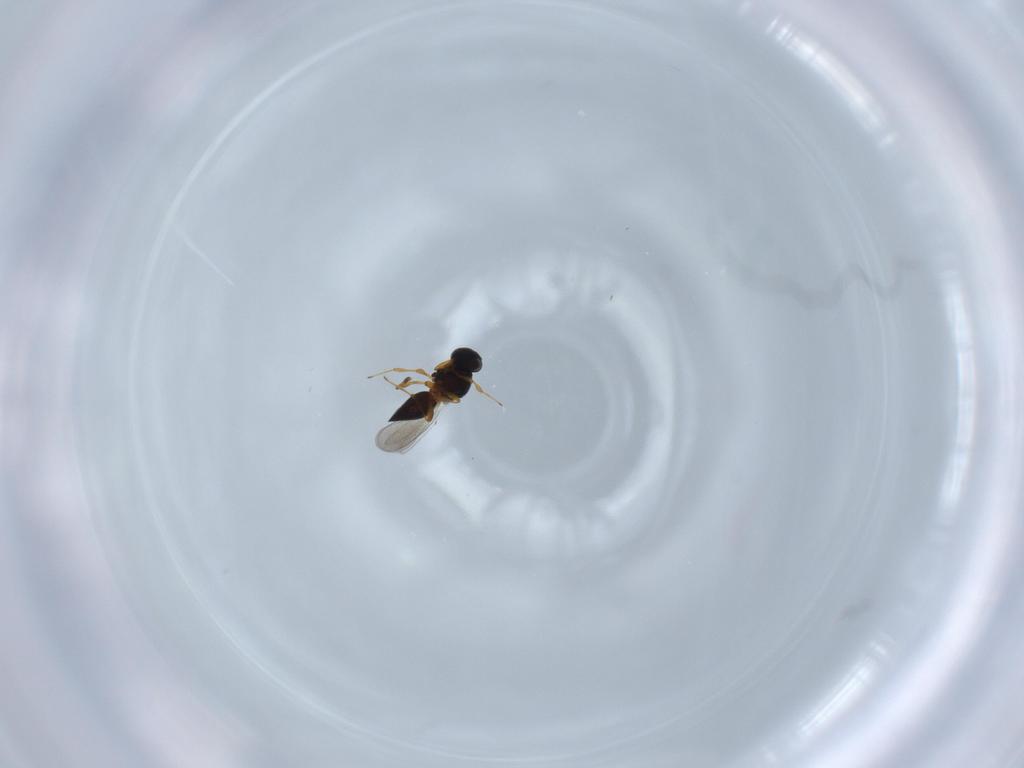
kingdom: Animalia
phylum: Arthropoda
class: Insecta
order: Hymenoptera
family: Platygastridae
